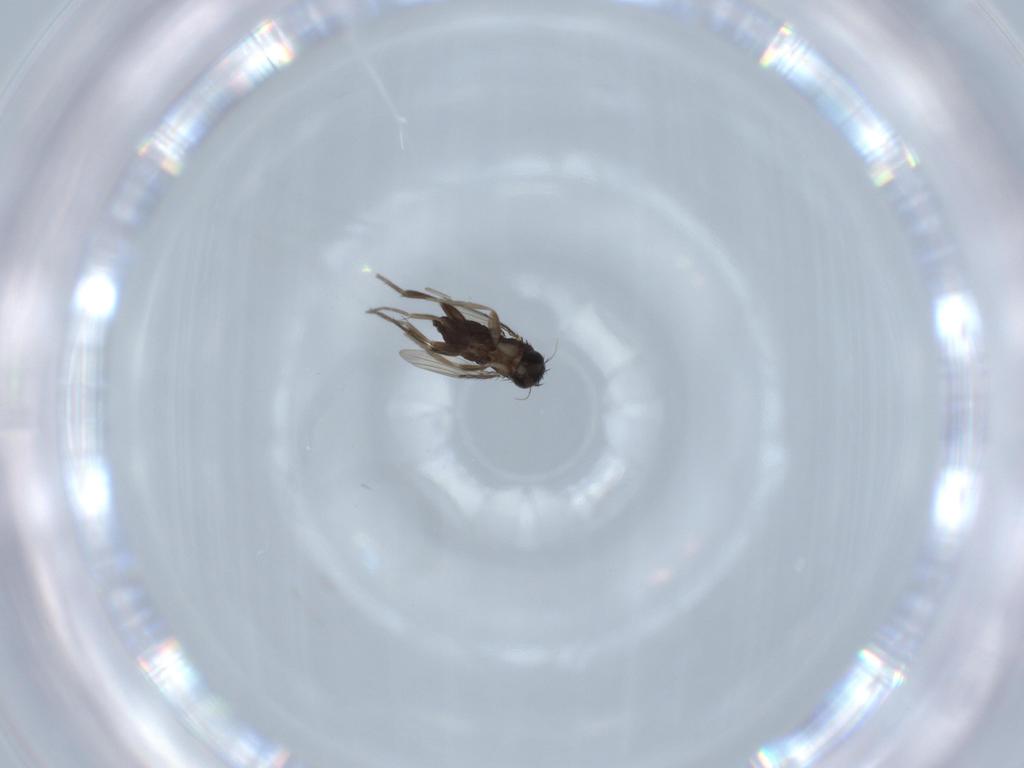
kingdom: Animalia
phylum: Arthropoda
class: Insecta
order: Diptera
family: Phoridae
